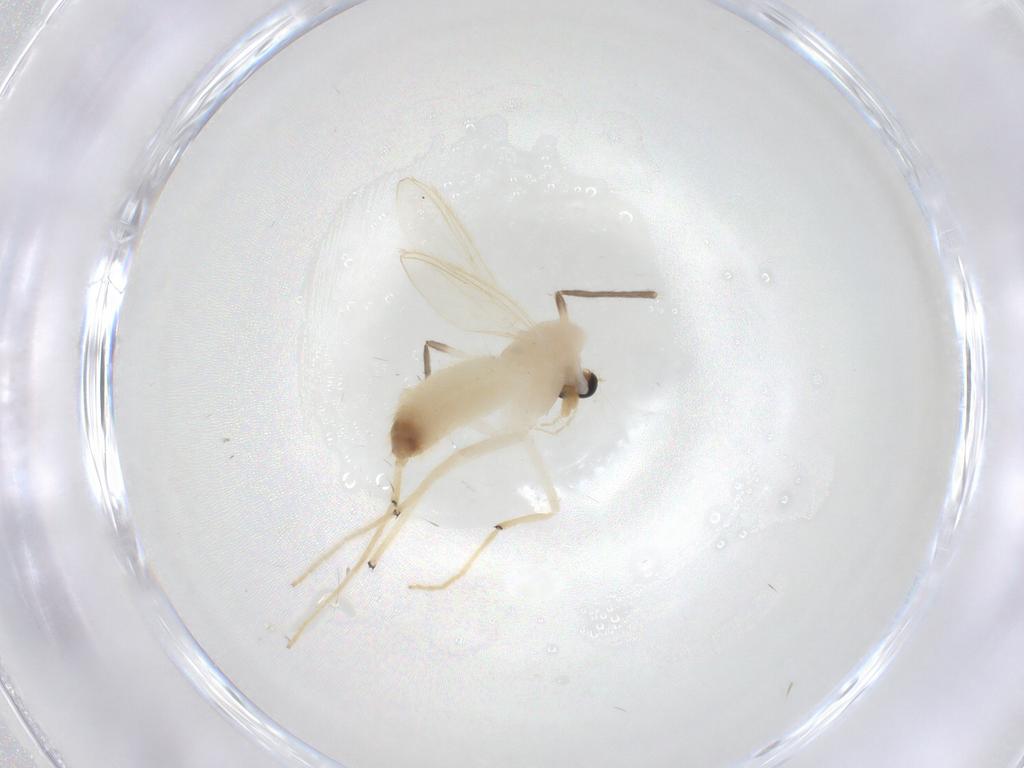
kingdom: Animalia
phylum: Arthropoda
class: Insecta
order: Diptera
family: Chironomidae
